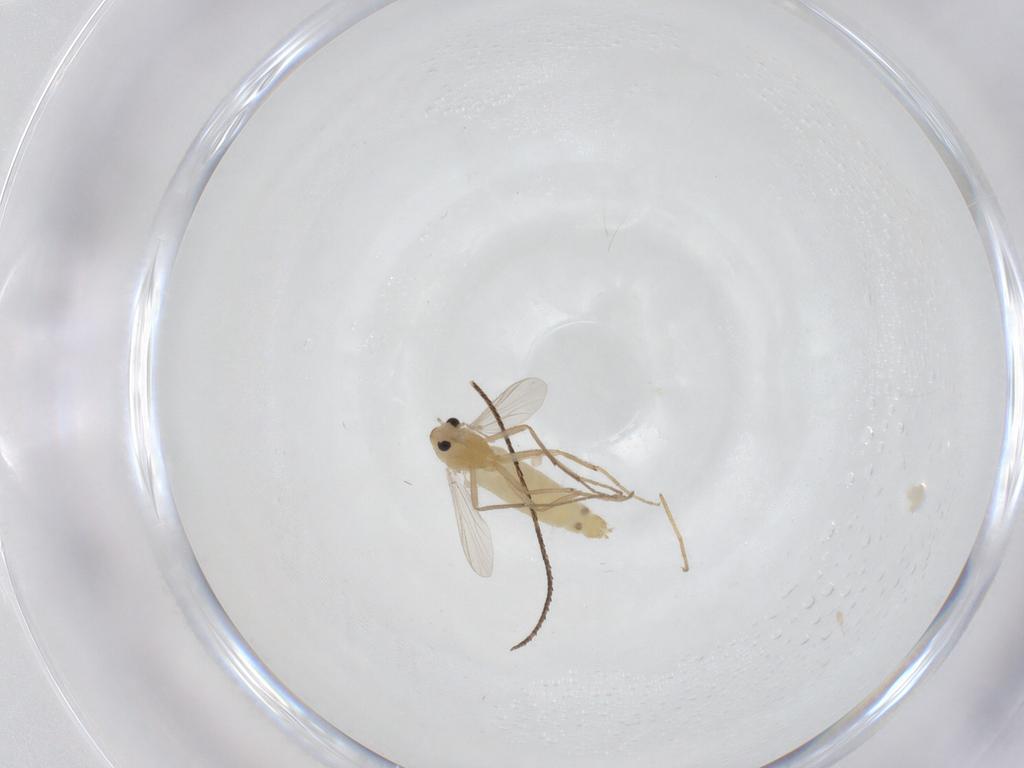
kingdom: Animalia
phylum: Arthropoda
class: Insecta
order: Diptera
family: Chironomidae
